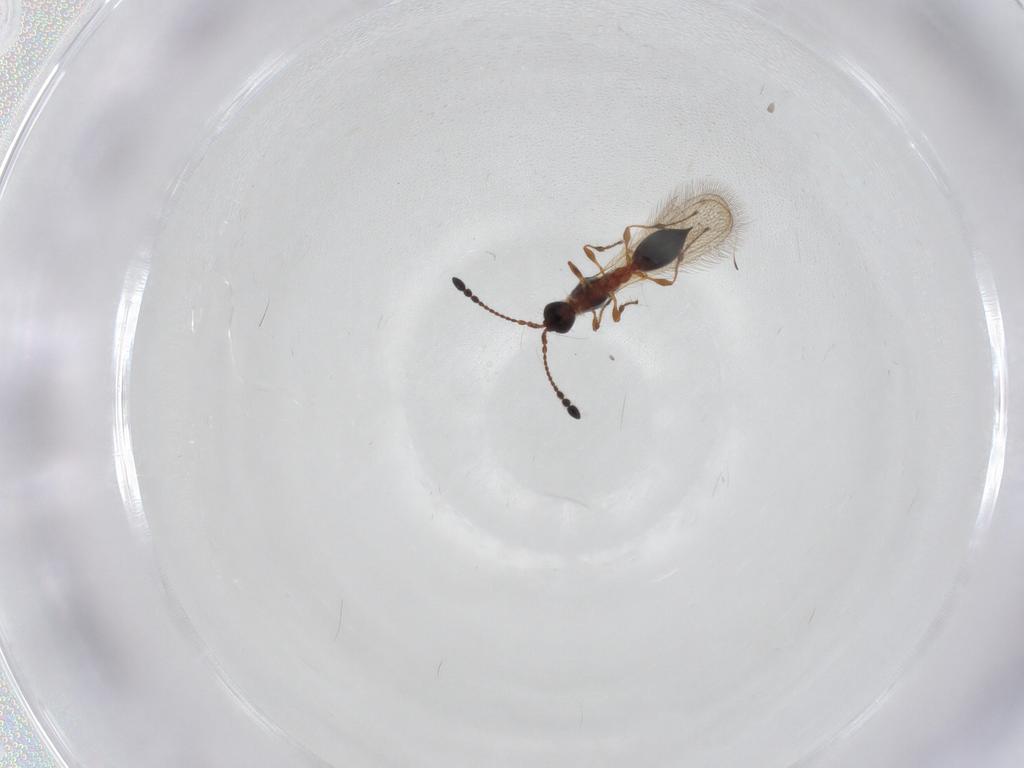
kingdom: Animalia
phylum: Arthropoda
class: Insecta
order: Hymenoptera
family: Diapriidae
